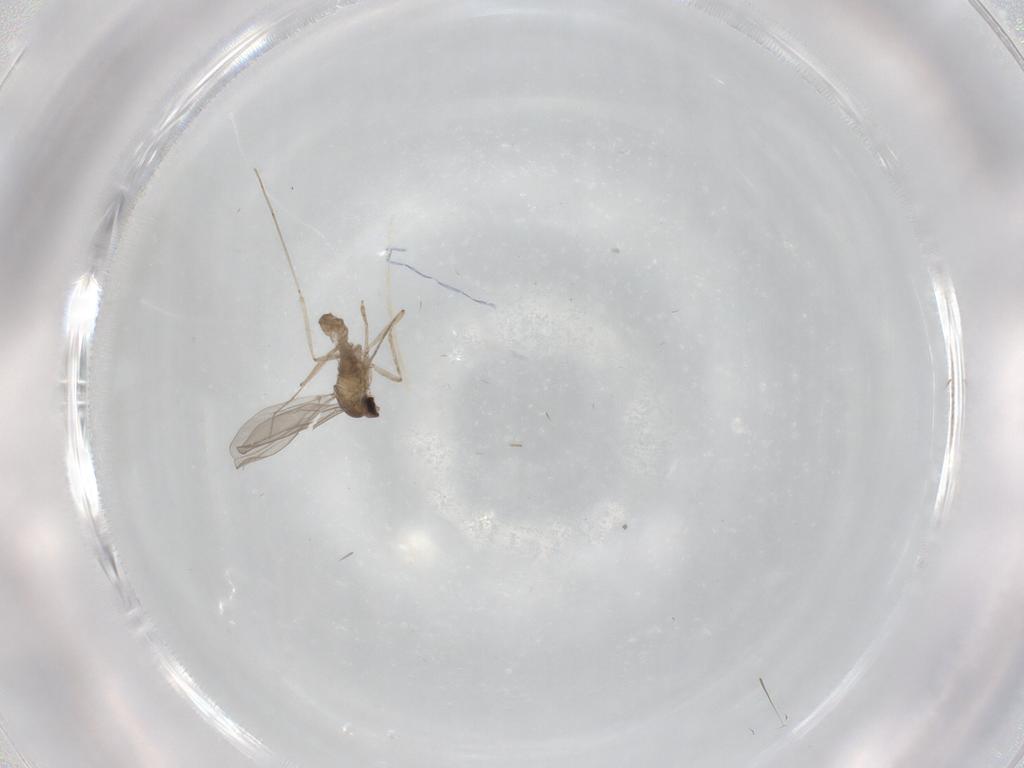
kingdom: Animalia
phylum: Arthropoda
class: Insecta
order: Diptera
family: Cecidomyiidae
